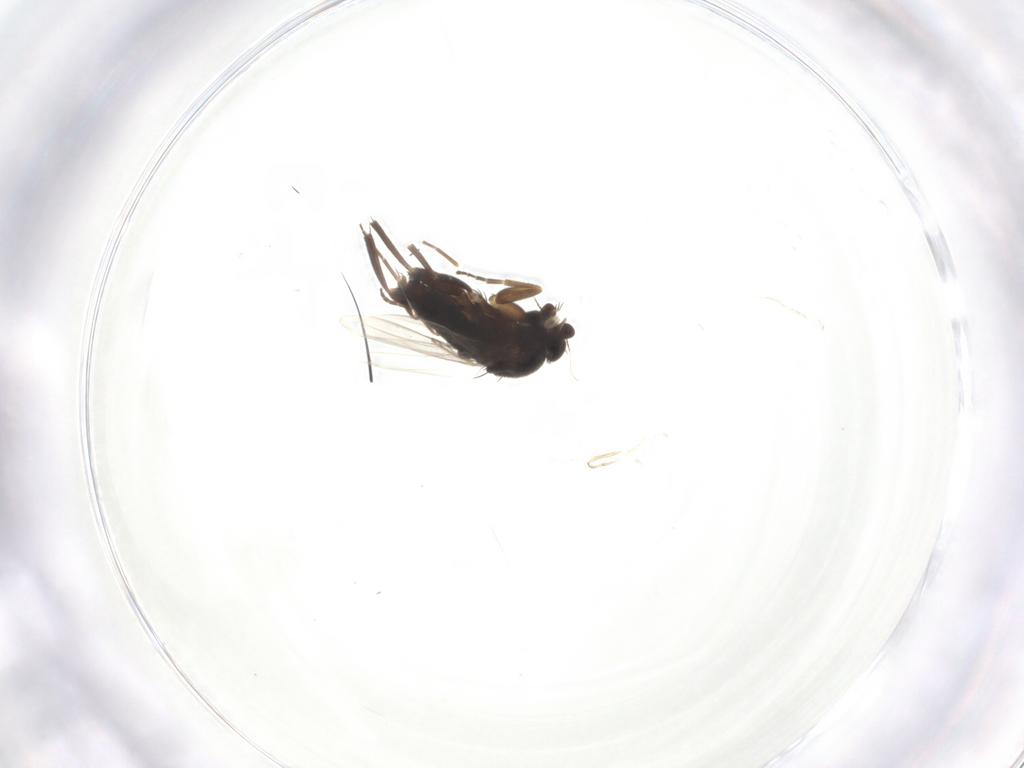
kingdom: Animalia
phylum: Arthropoda
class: Insecta
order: Diptera
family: Phoridae
